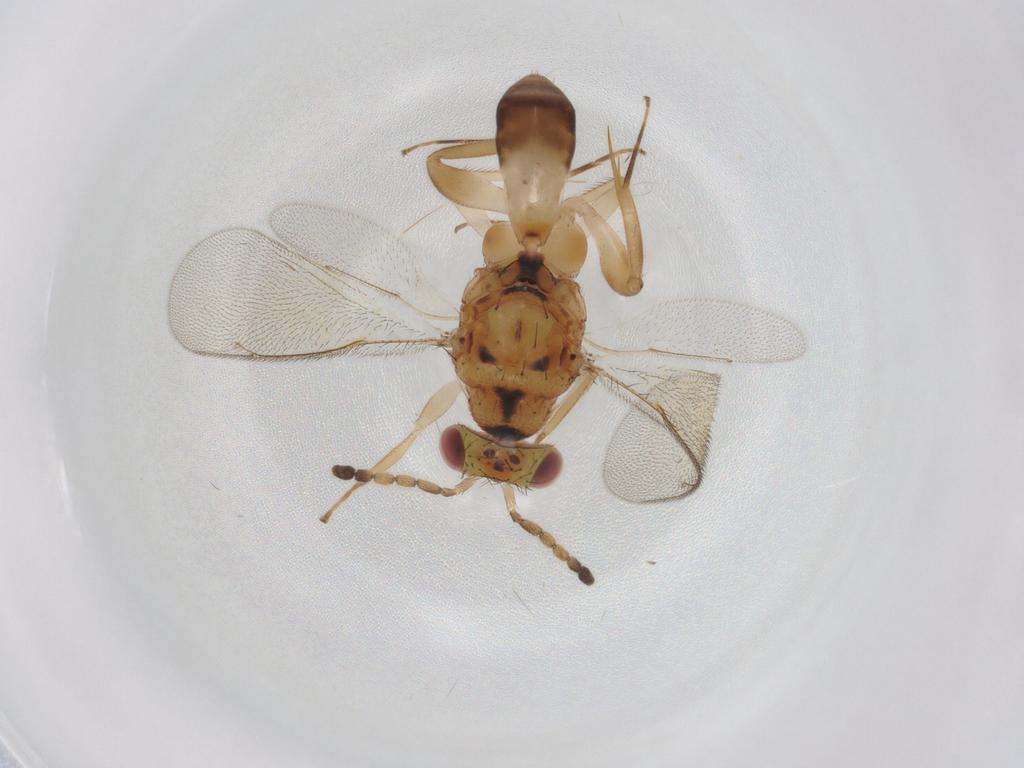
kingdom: Animalia
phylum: Arthropoda
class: Insecta
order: Hymenoptera
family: Eulophidae
